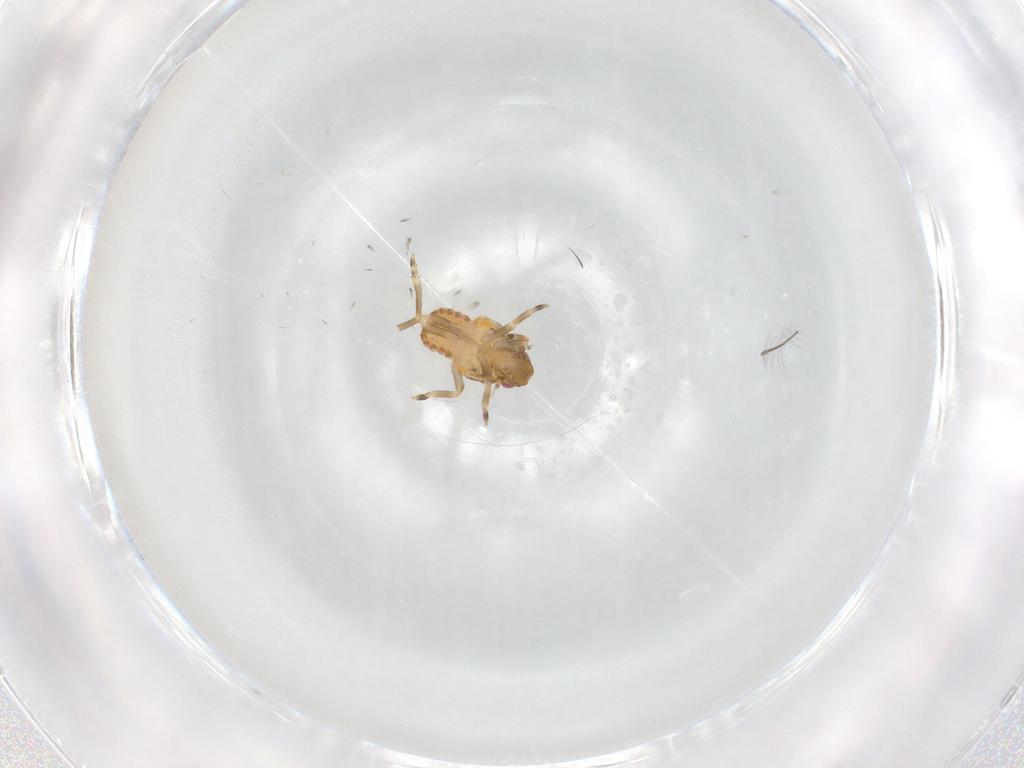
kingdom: Animalia
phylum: Arthropoda
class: Insecta
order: Hemiptera
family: Flatidae
